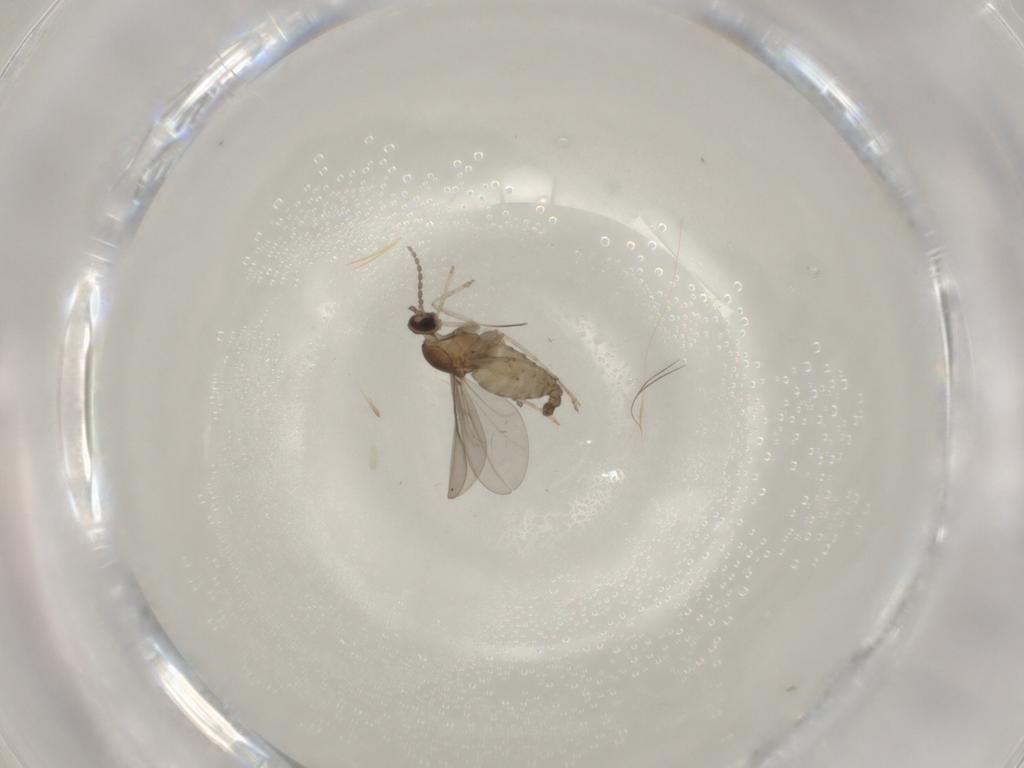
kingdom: Animalia
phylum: Arthropoda
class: Insecta
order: Diptera
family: Cecidomyiidae
